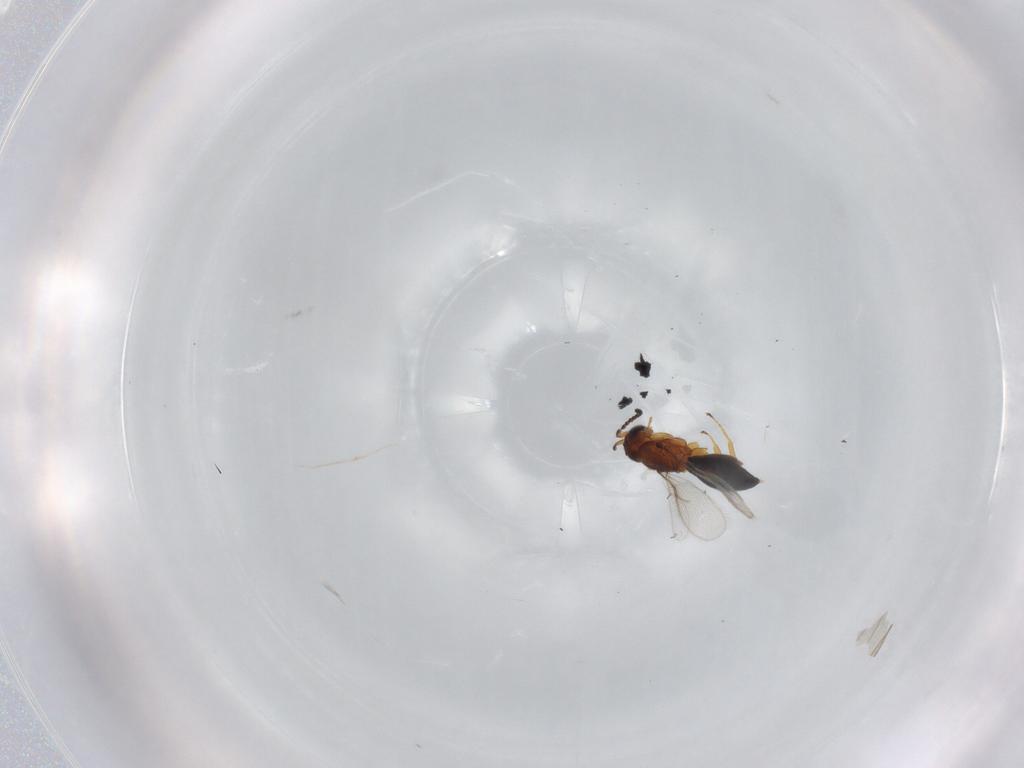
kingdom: Animalia
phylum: Arthropoda
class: Insecta
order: Hymenoptera
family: Scelionidae
